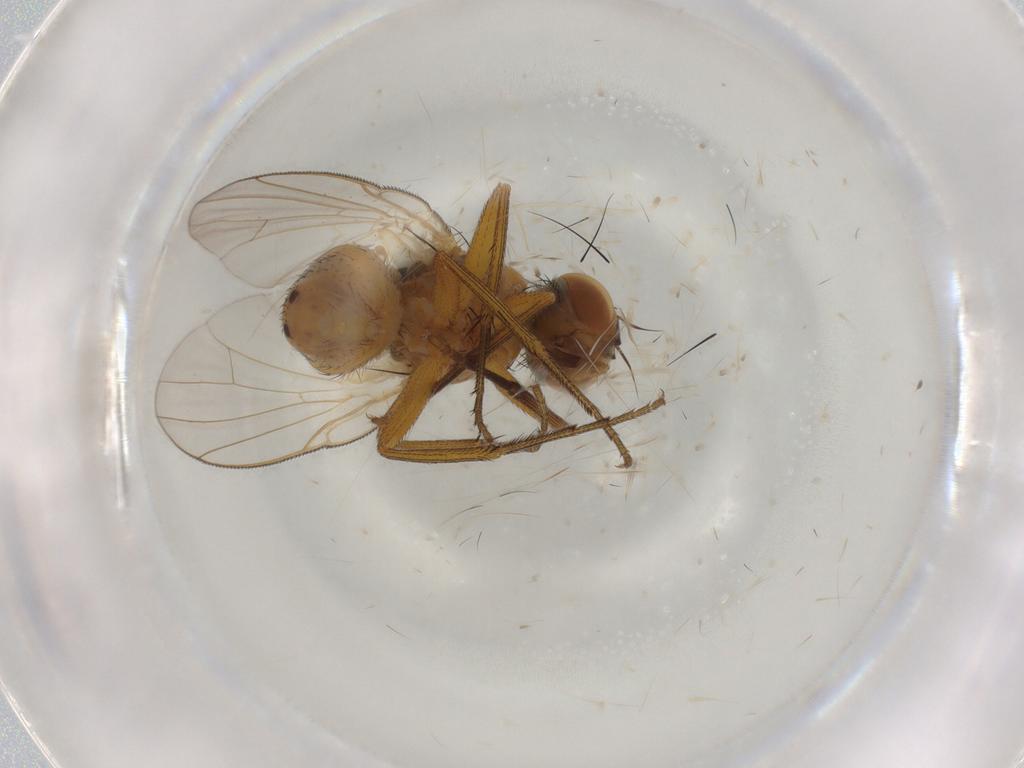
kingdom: Animalia
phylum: Arthropoda
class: Insecta
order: Diptera
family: Muscidae
